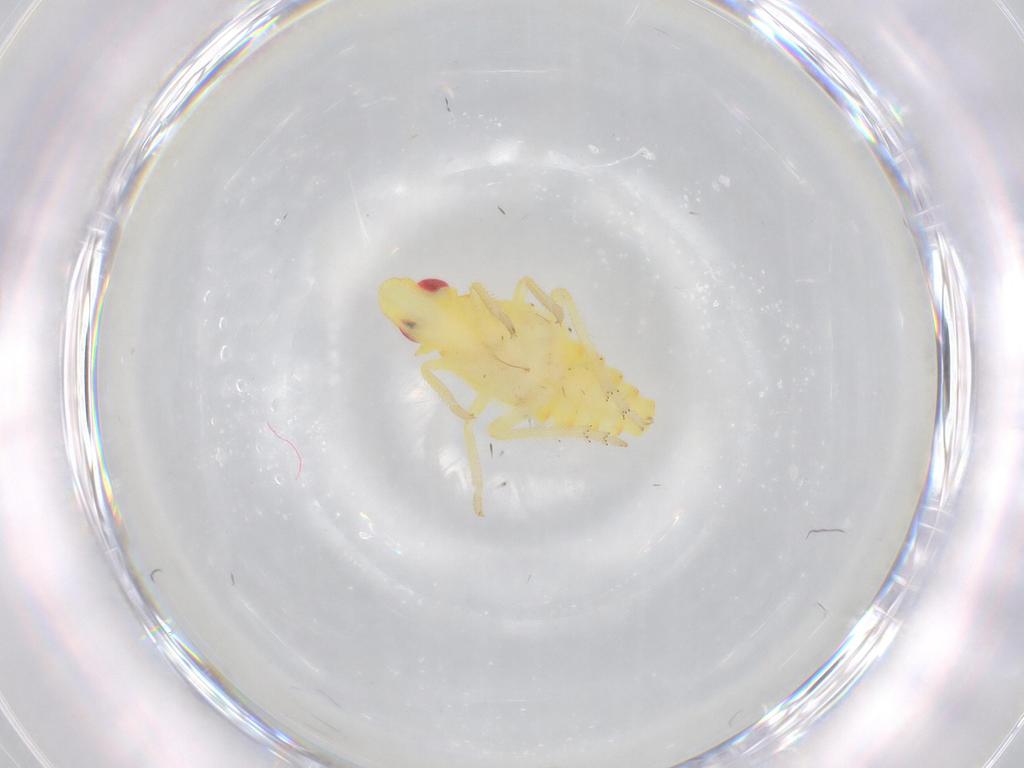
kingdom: Animalia
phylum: Arthropoda
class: Insecta
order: Hemiptera
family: Tropiduchidae
